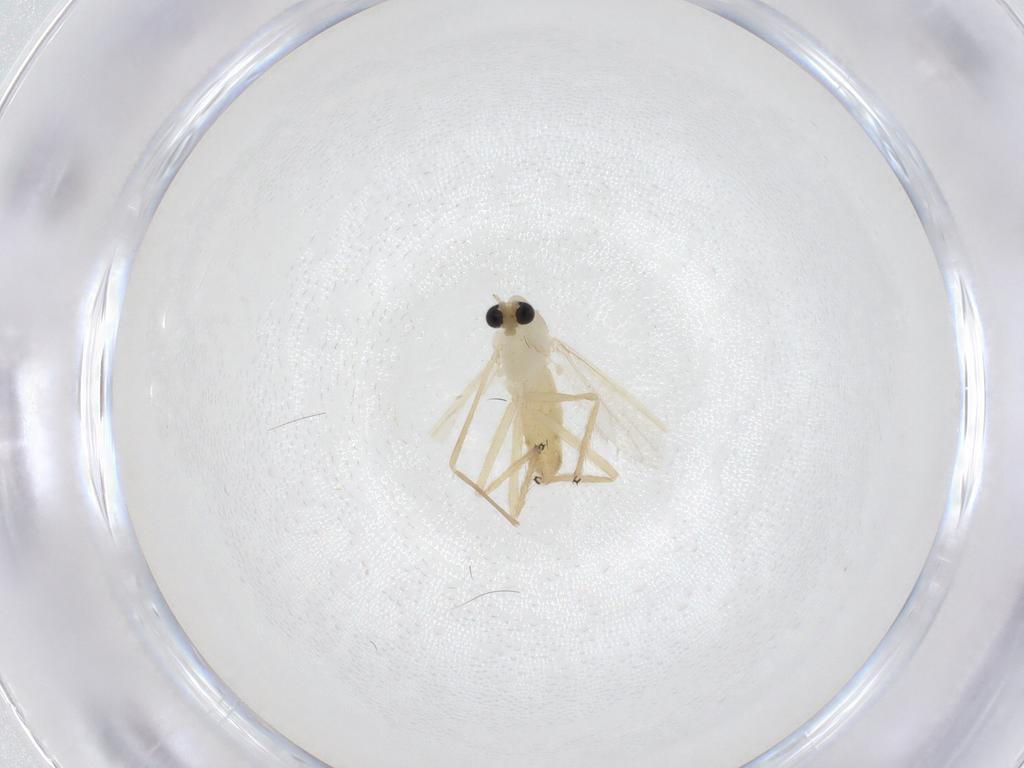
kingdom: Animalia
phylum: Arthropoda
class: Insecta
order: Diptera
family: Chironomidae
